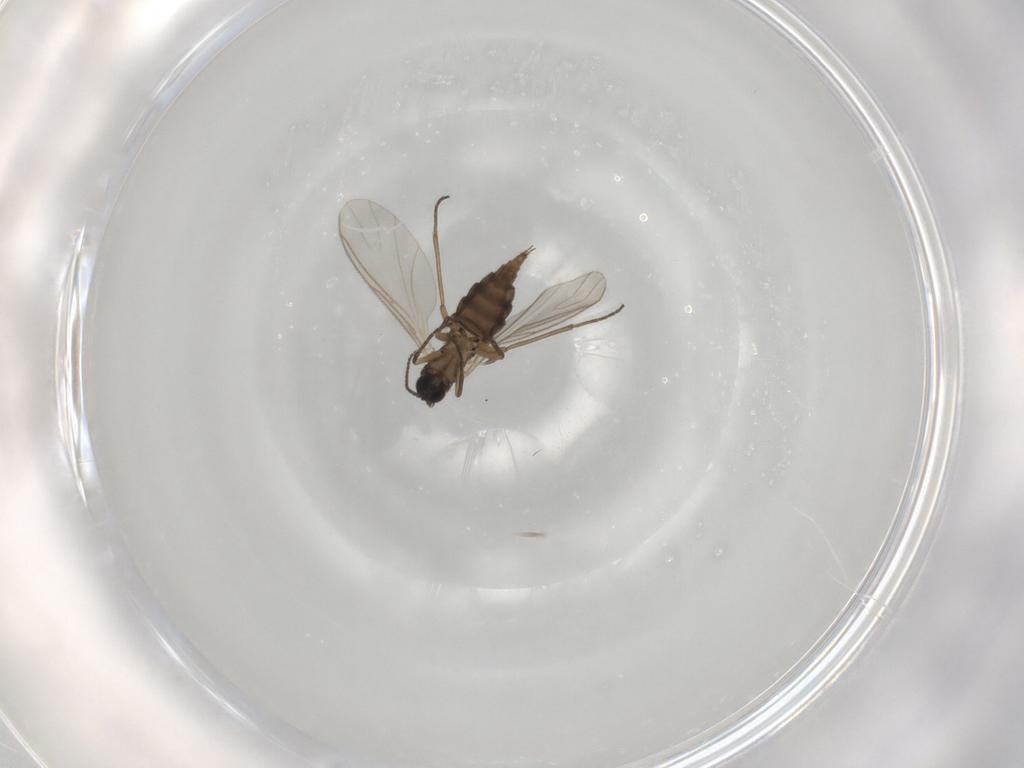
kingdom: Animalia
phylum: Arthropoda
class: Insecta
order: Diptera
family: Sciaridae
